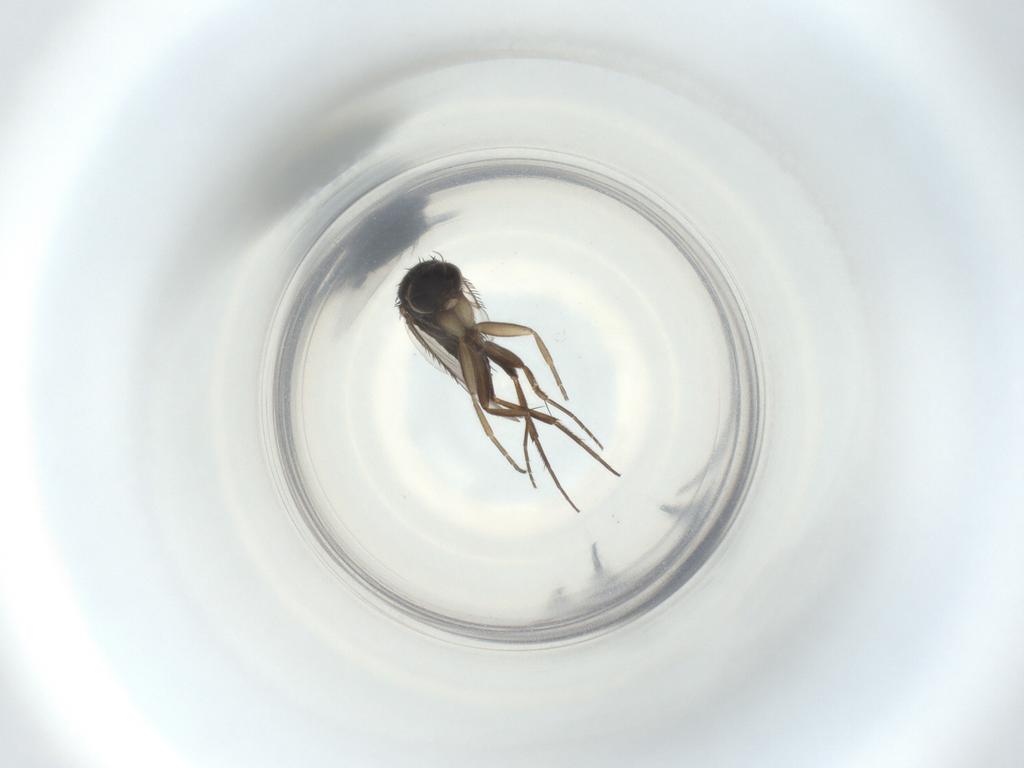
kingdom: Animalia
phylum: Arthropoda
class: Insecta
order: Diptera
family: Phoridae
